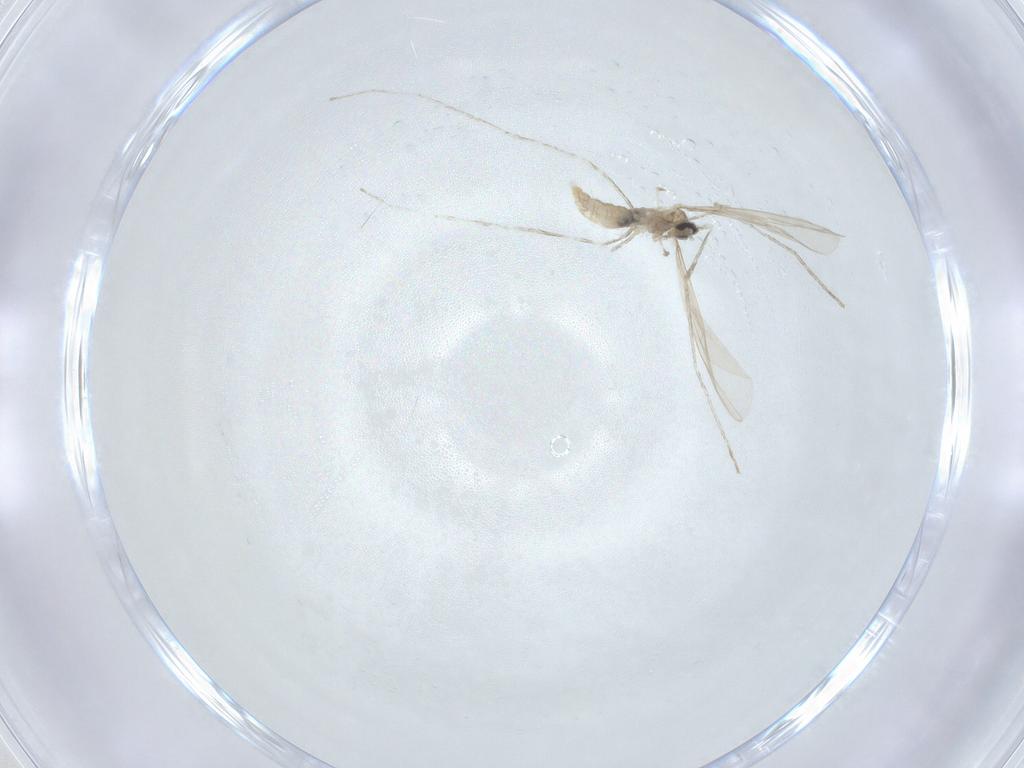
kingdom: Animalia
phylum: Arthropoda
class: Insecta
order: Diptera
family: Cecidomyiidae
